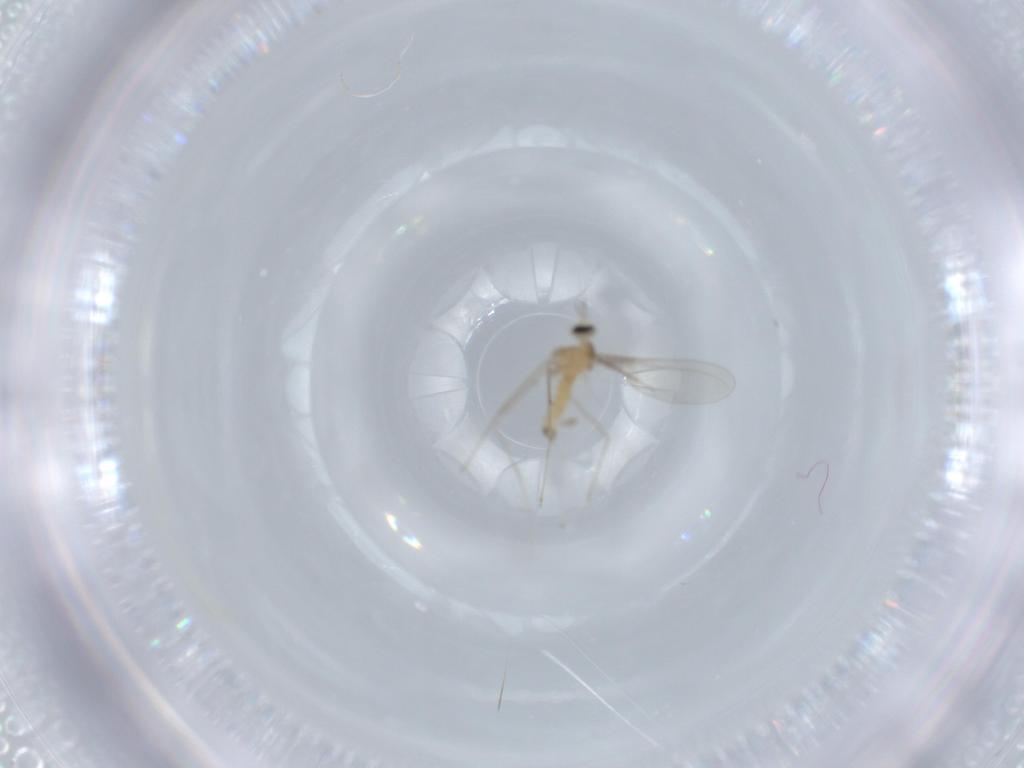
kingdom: Animalia
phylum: Arthropoda
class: Insecta
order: Diptera
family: Cecidomyiidae
